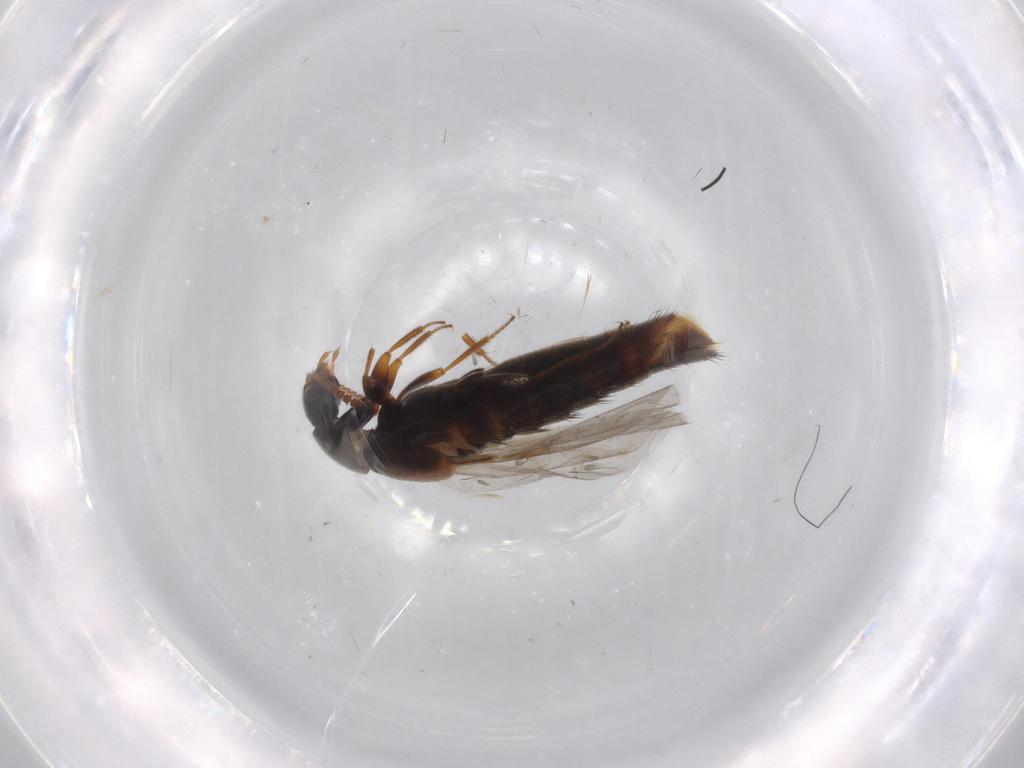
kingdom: Animalia
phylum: Arthropoda
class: Insecta
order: Coleoptera
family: Staphylinidae
